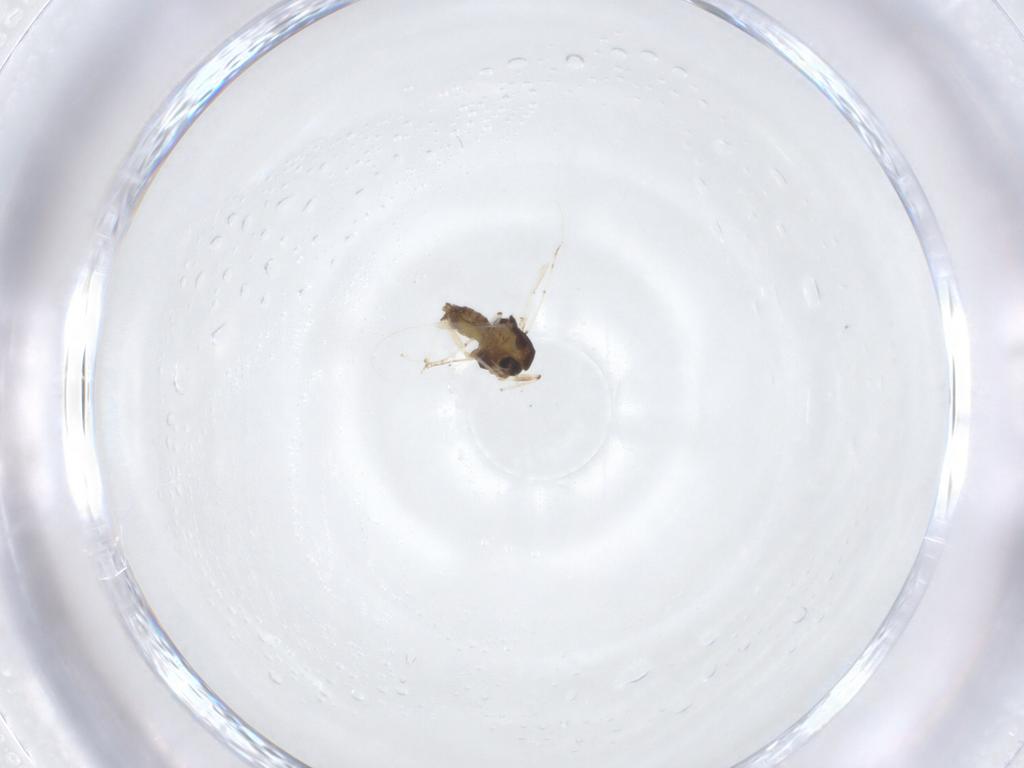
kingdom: Animalia
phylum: Arthropoda
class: Insecta
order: Diptera
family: Chironomidae
